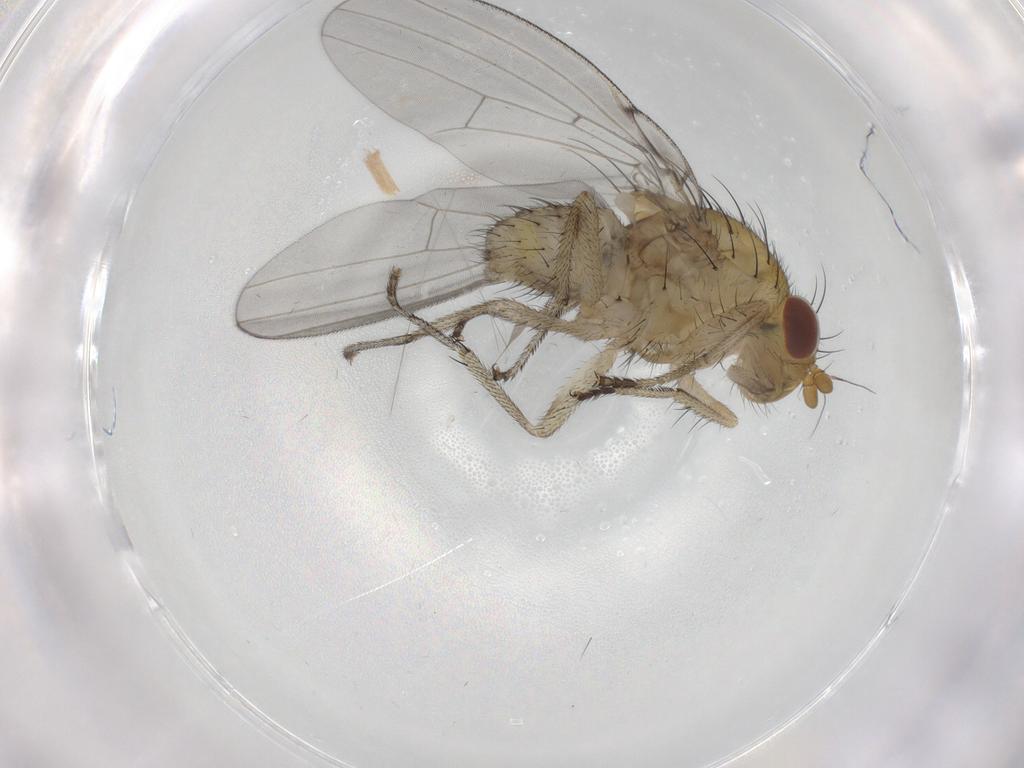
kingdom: Animalia
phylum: Arthropoda
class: Insecta
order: Diptera
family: Lauxaniidae
